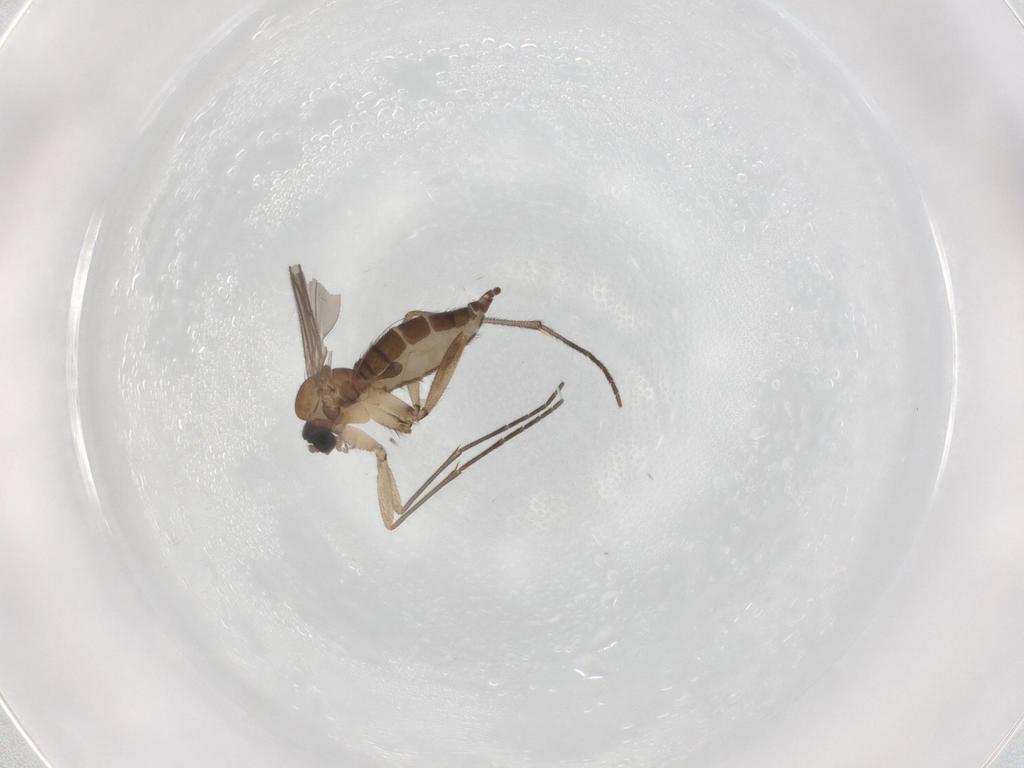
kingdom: Animalia
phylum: Arthropoda
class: Insecta
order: Diptera
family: Sciaridae
